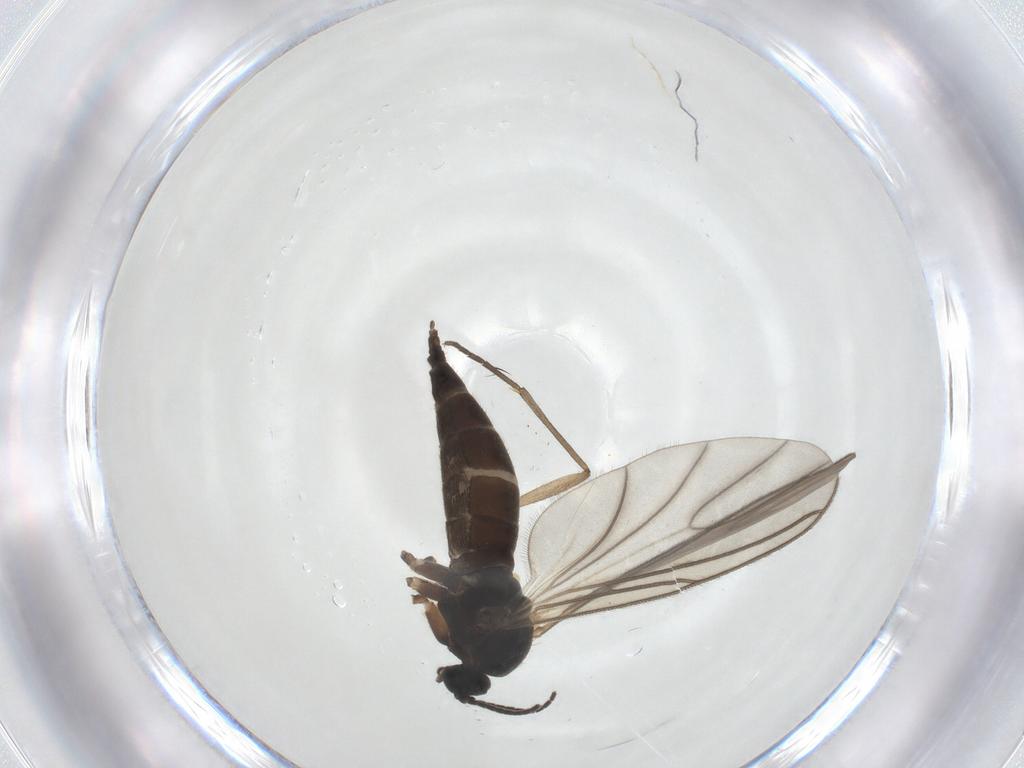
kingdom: Animalia
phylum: Arthropoda
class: Insecta
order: Diptera
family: Sciaridae
